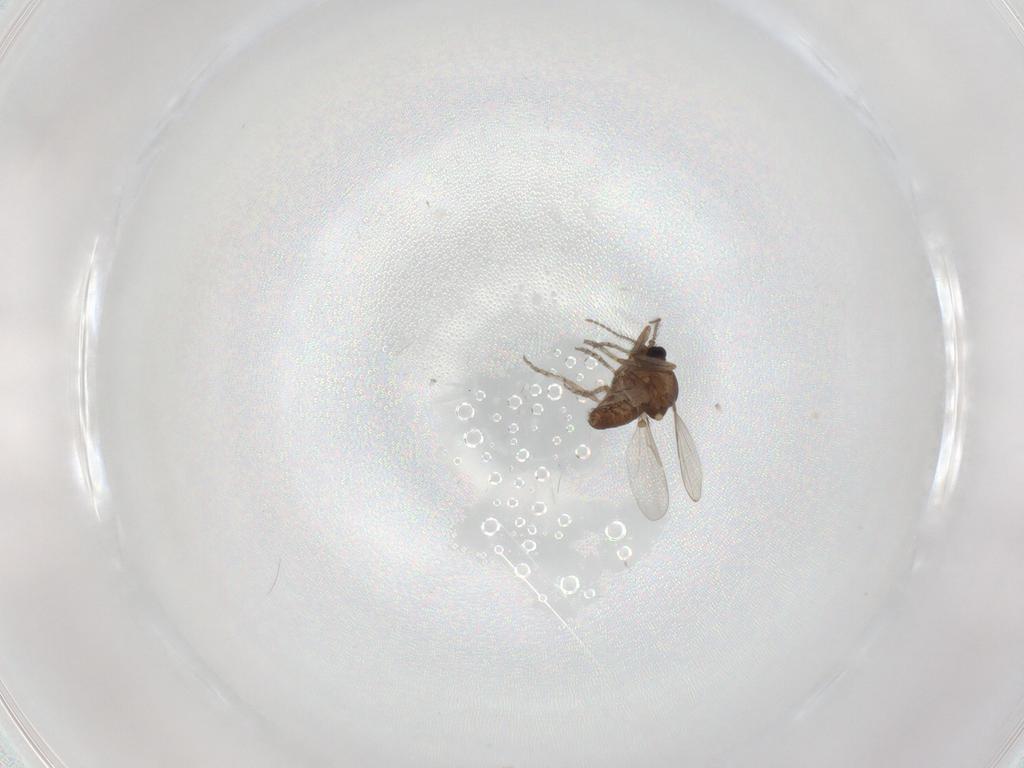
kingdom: Animalia
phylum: Arthropoda
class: Insecta
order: Diptera
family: Ceratopogonidae
